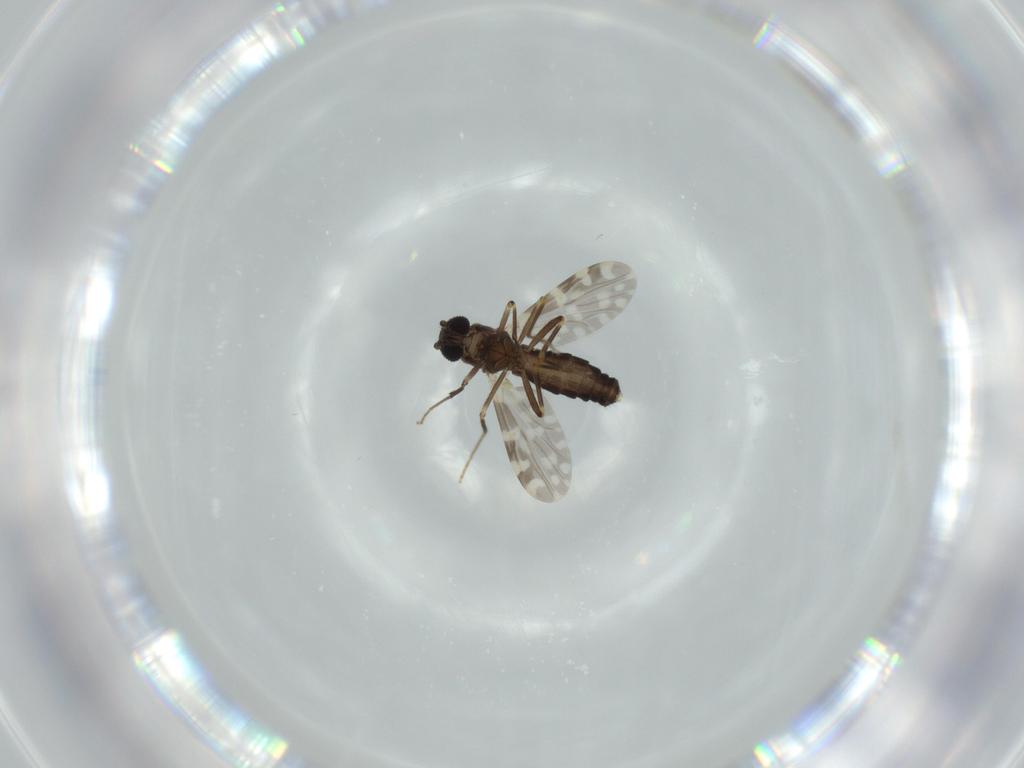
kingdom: Animalia
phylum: Arthropoda
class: Insecta
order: Diptera
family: Ceratopogonidae
